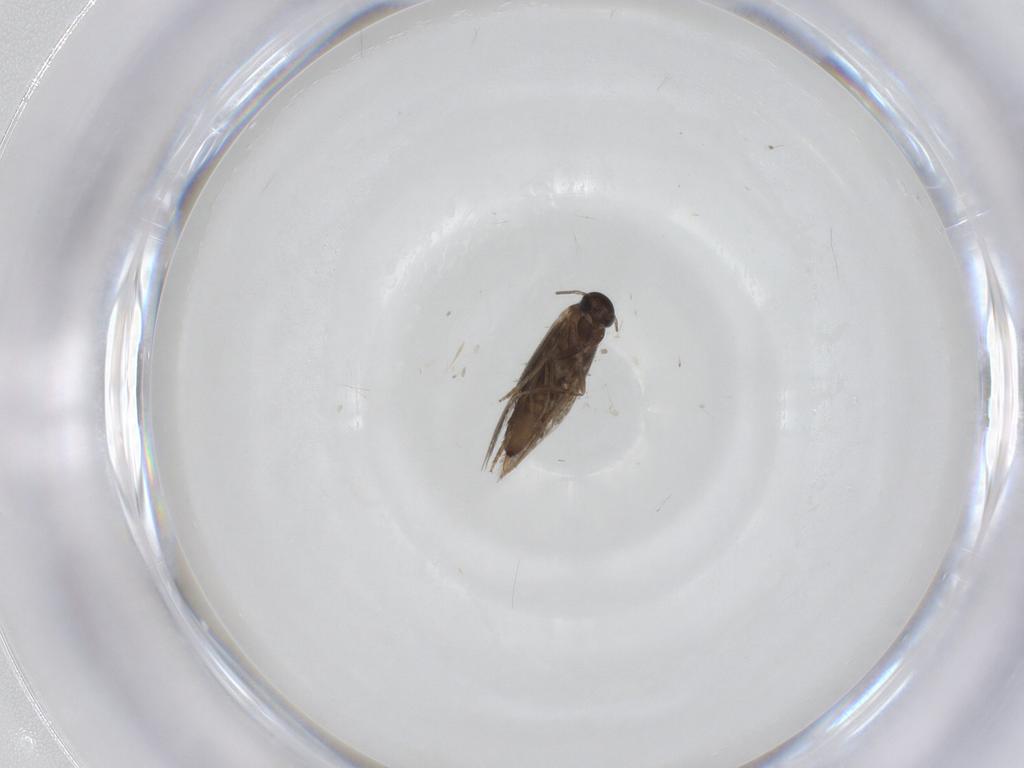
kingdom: Animalia
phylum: Arthropoda
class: Insecta
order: Lepidoptera
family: Heliozelidae
